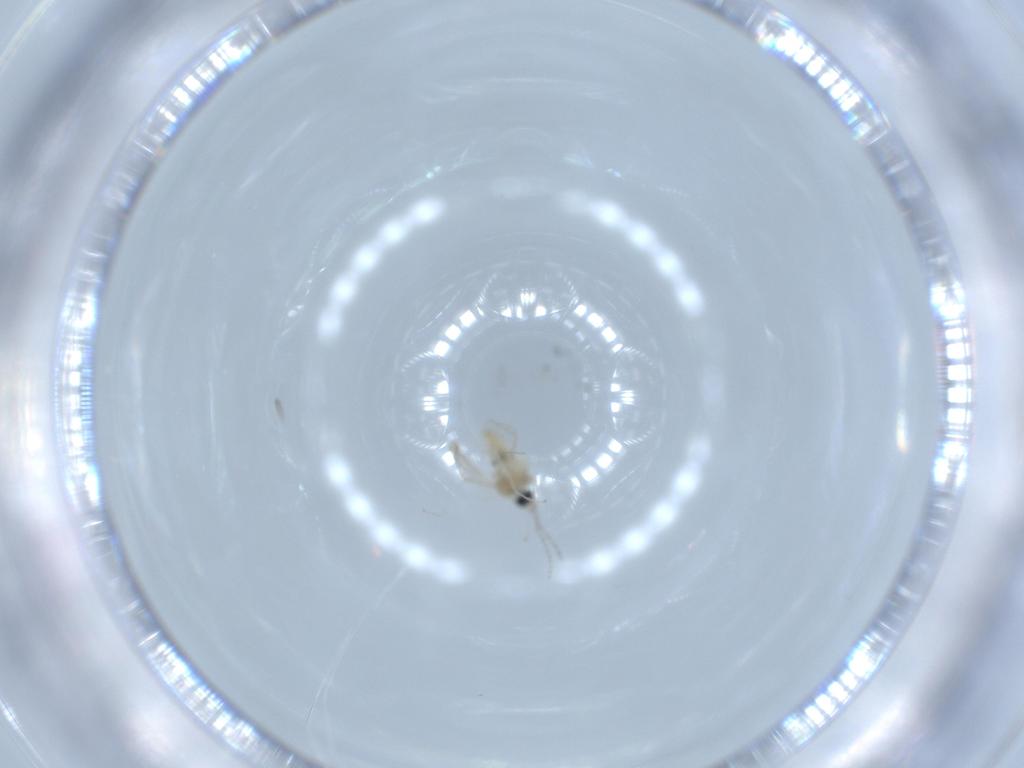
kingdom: Animalia
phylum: Arthropoda
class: Insecta
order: Diptera
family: Cecidomyiidae
